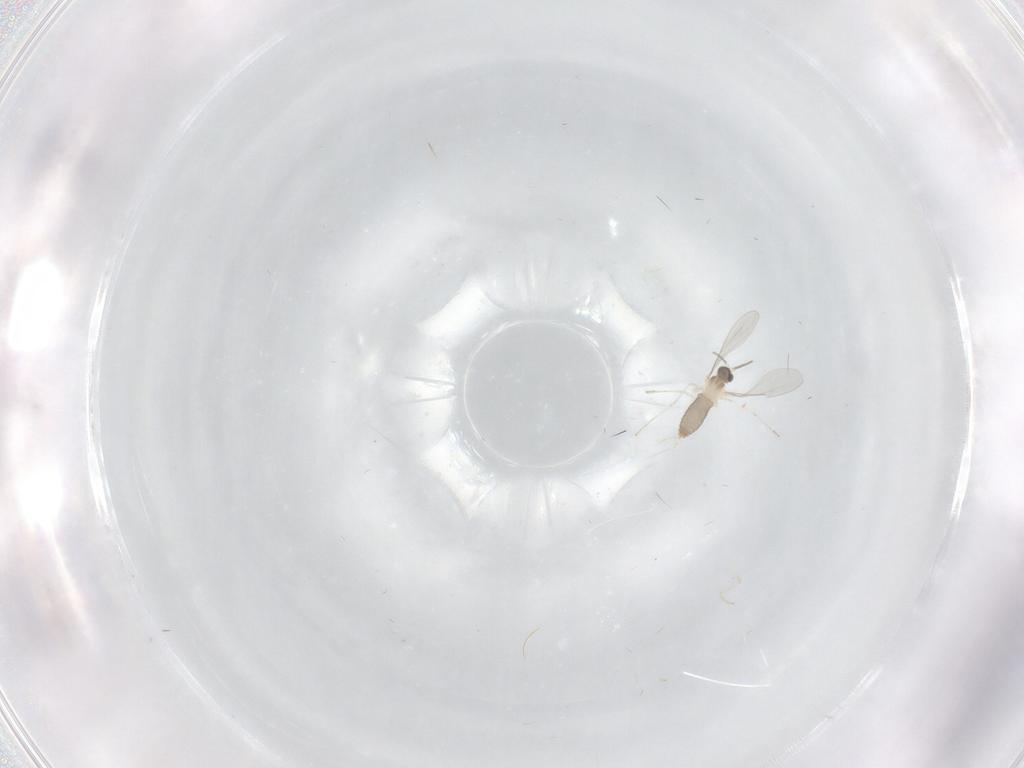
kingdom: Animalia
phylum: Arthropoda
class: Insecta
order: Diptera
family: Cecidomyiidae
